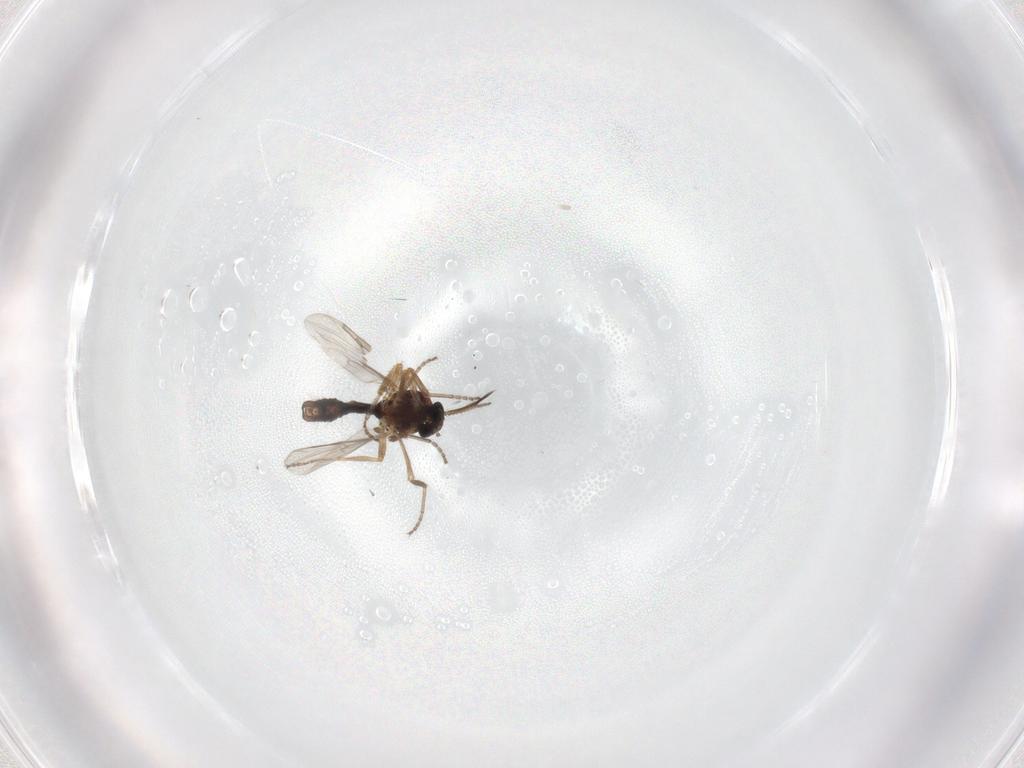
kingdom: Animalia
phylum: Arthropoda
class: Insecta
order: Diptera
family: Ceratopogonidae
